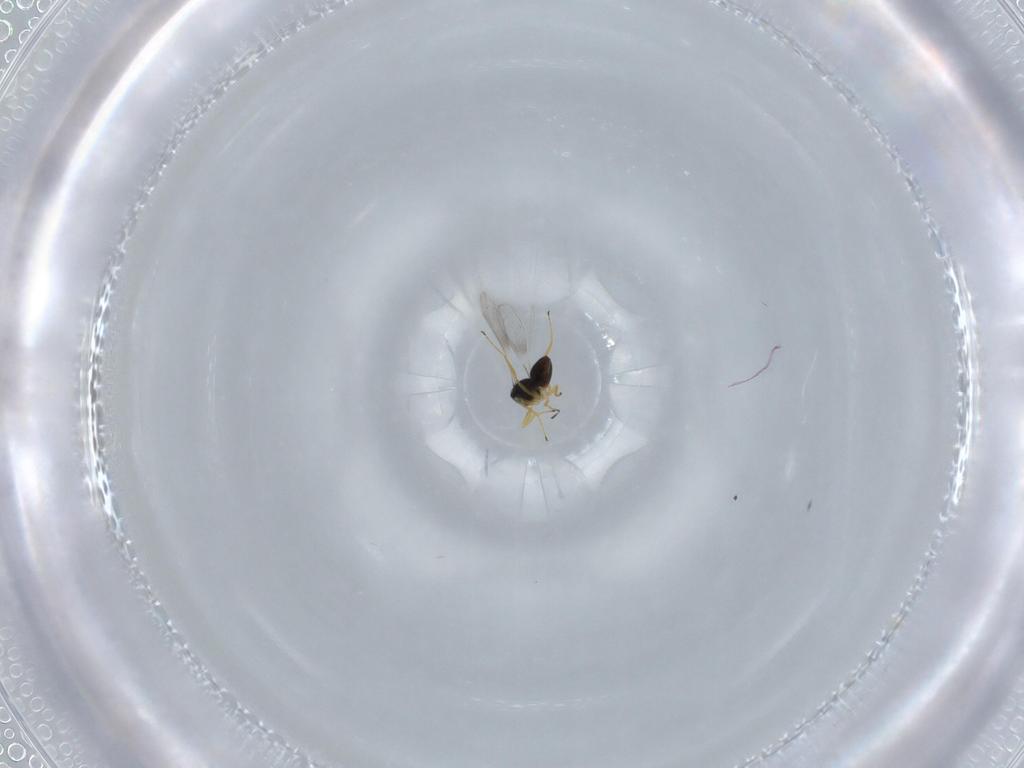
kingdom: Animalia
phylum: Arthropoda
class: Insecta
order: Hymenoptera
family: Mymaridae
